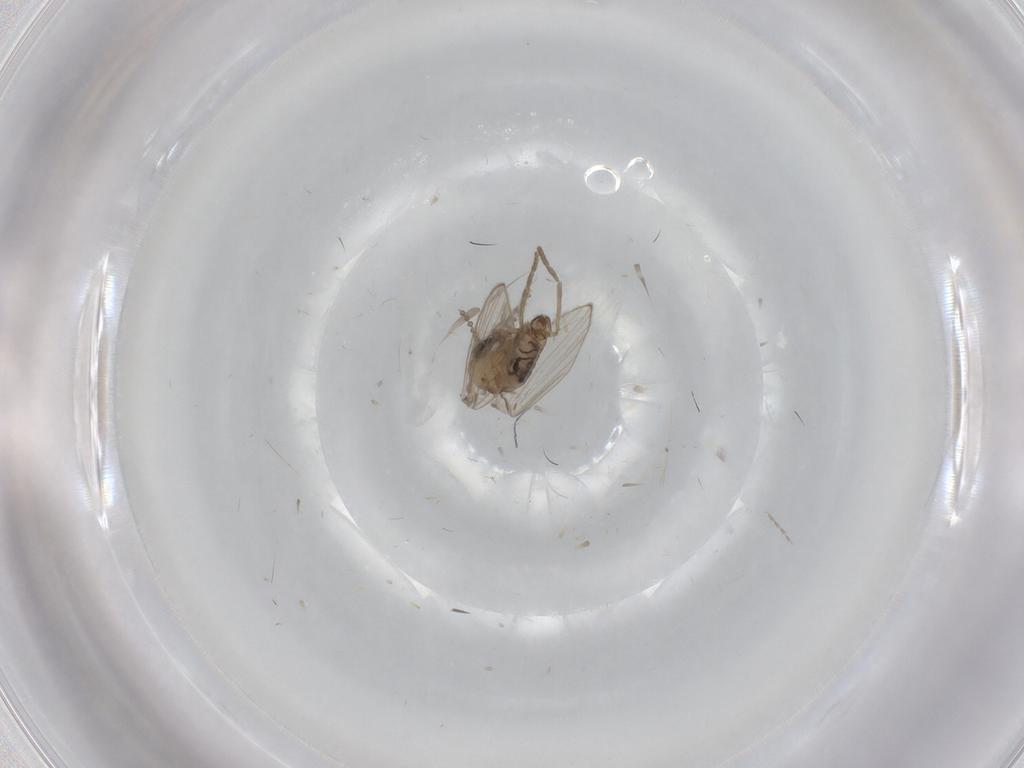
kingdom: Animalia
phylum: Arthropoda
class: Insecta
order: Diptera
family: Psychodidae
